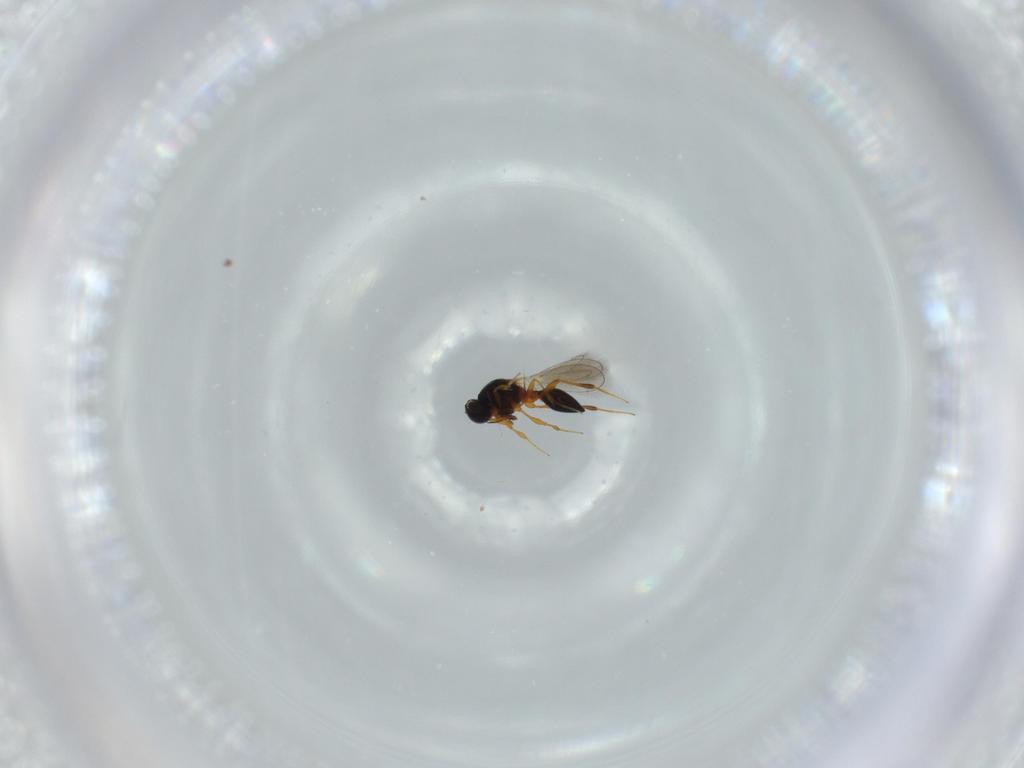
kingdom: Animalia
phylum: Arthropoda
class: Insecta
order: Hymenoptera
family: Platygastridae
